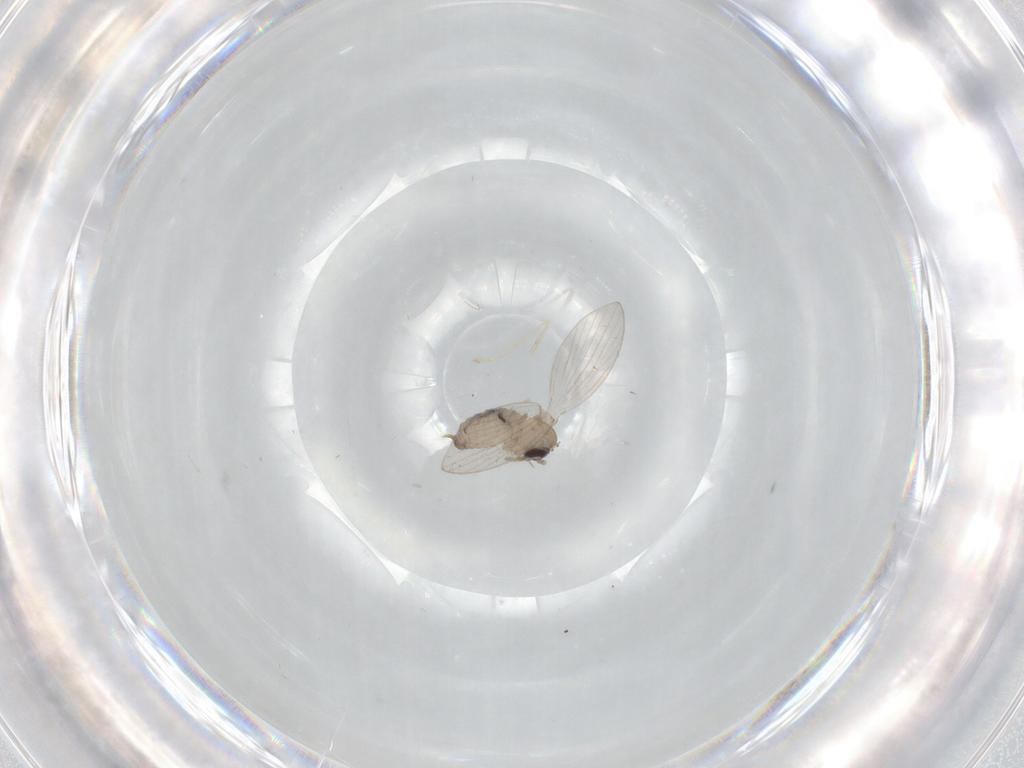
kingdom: Animalia
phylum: Arthropoda
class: Insecta
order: Diptera
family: Psychodidae
